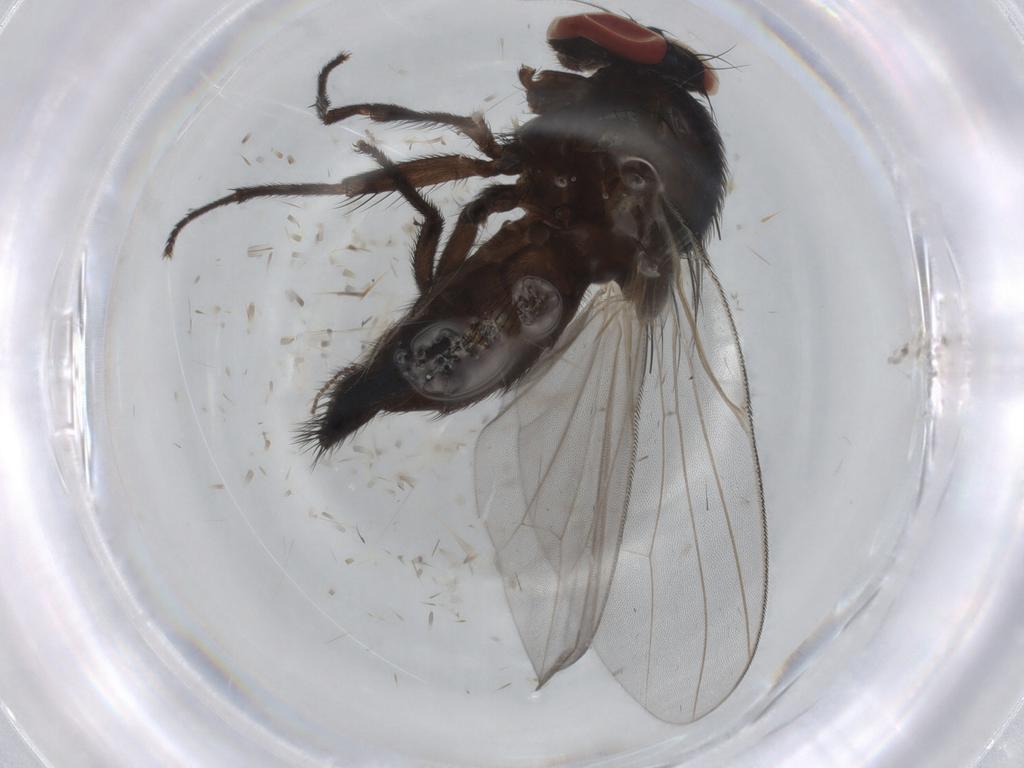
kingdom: Animalia
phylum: Arthropoda
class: Insecta
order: Diptera
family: Lonchaeidae
